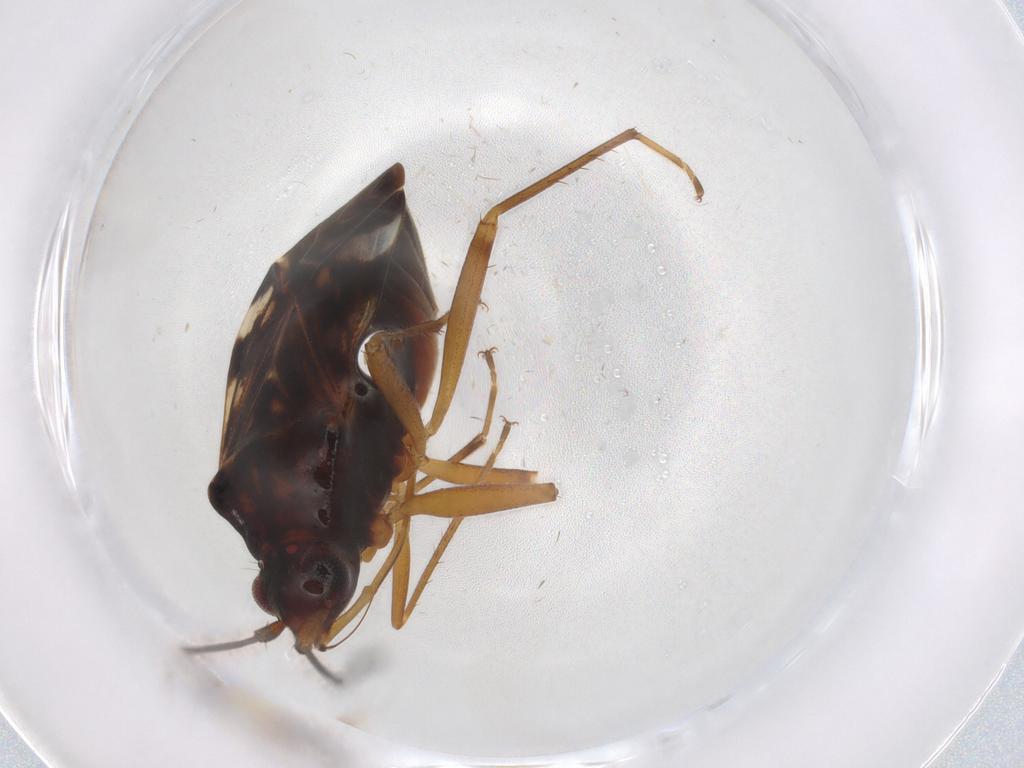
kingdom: Animalia
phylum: Arthropoda
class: Insecta
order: Hemiptera
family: Rhyparochromidae
